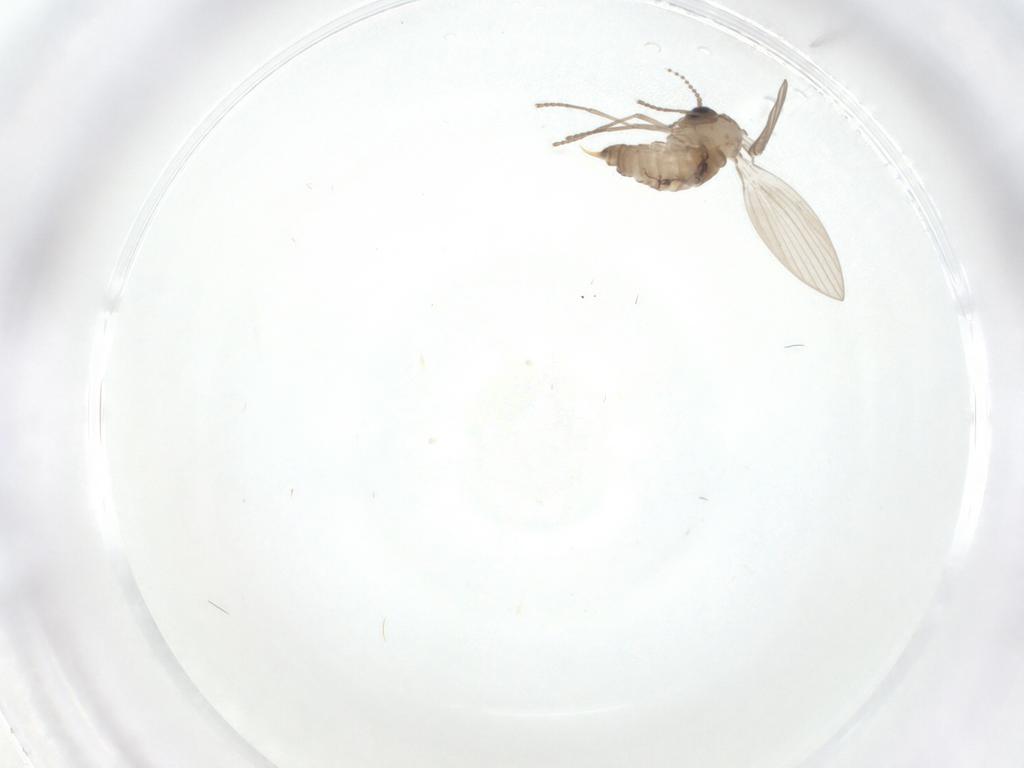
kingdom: Animalia
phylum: Arthropoda
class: Insecta
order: Diptera
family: Psychodidae
